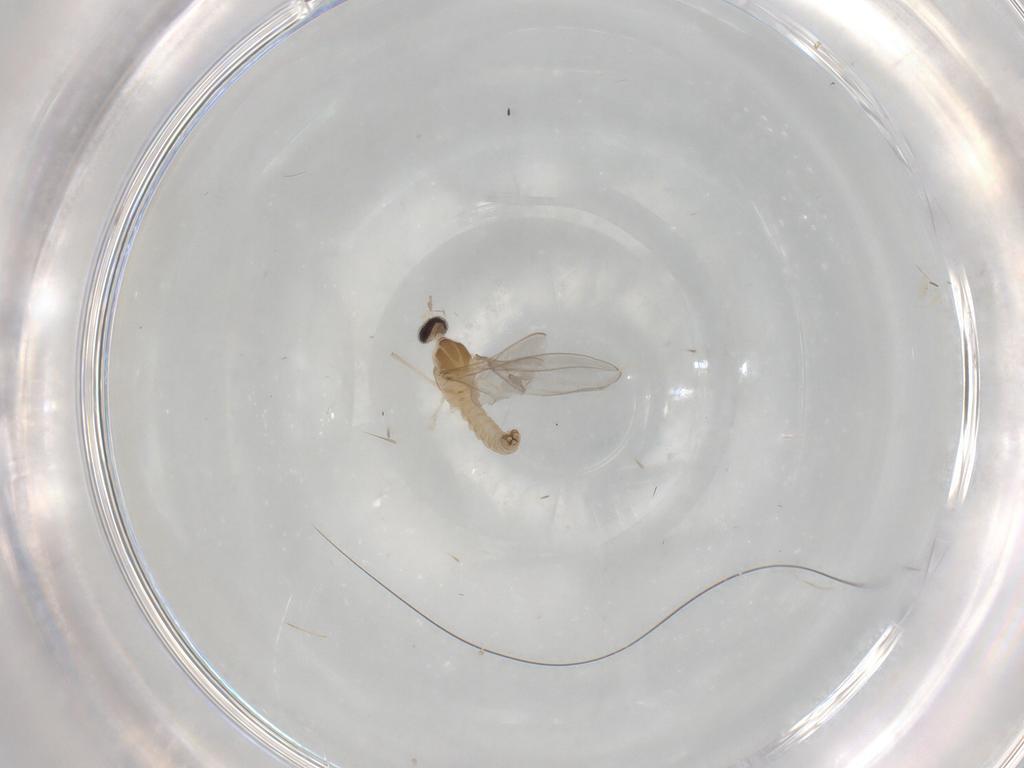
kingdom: Animalia
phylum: Arthropoda
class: Insecta
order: Diptera
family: Cecidomyiidae
